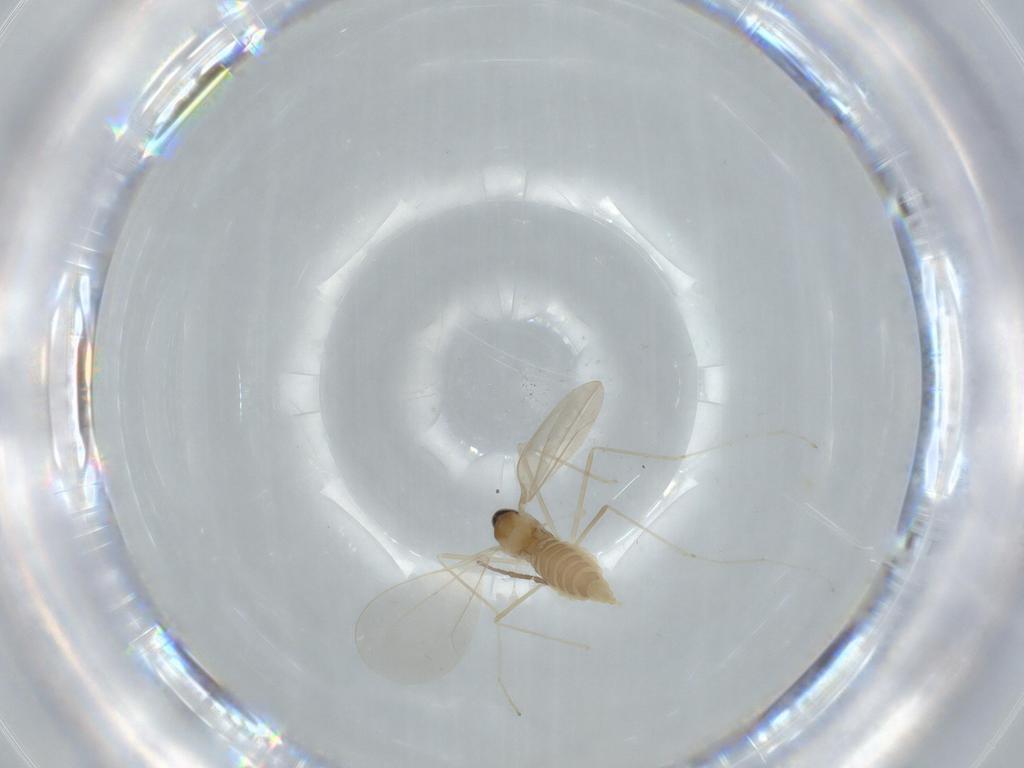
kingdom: Animalia
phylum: Arthropoda
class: Insecta
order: Diptera
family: Cecidomyiidae
